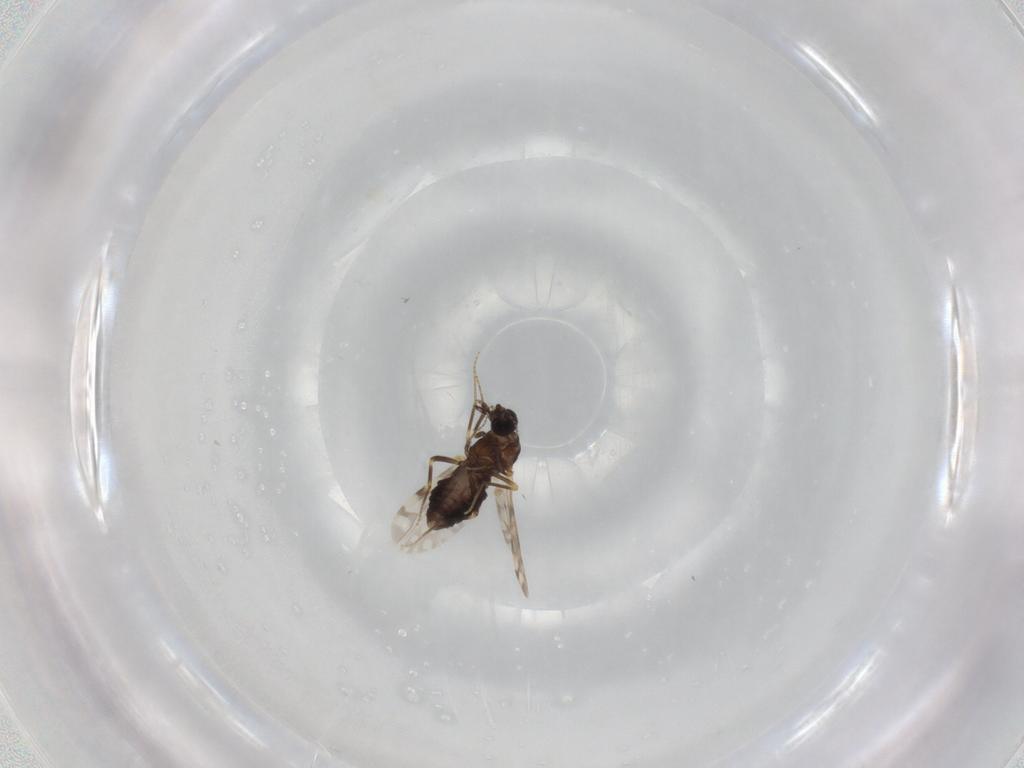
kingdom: Animalia
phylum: Arthropoda
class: Insecta
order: Diptera
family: Ceratopogonidae
